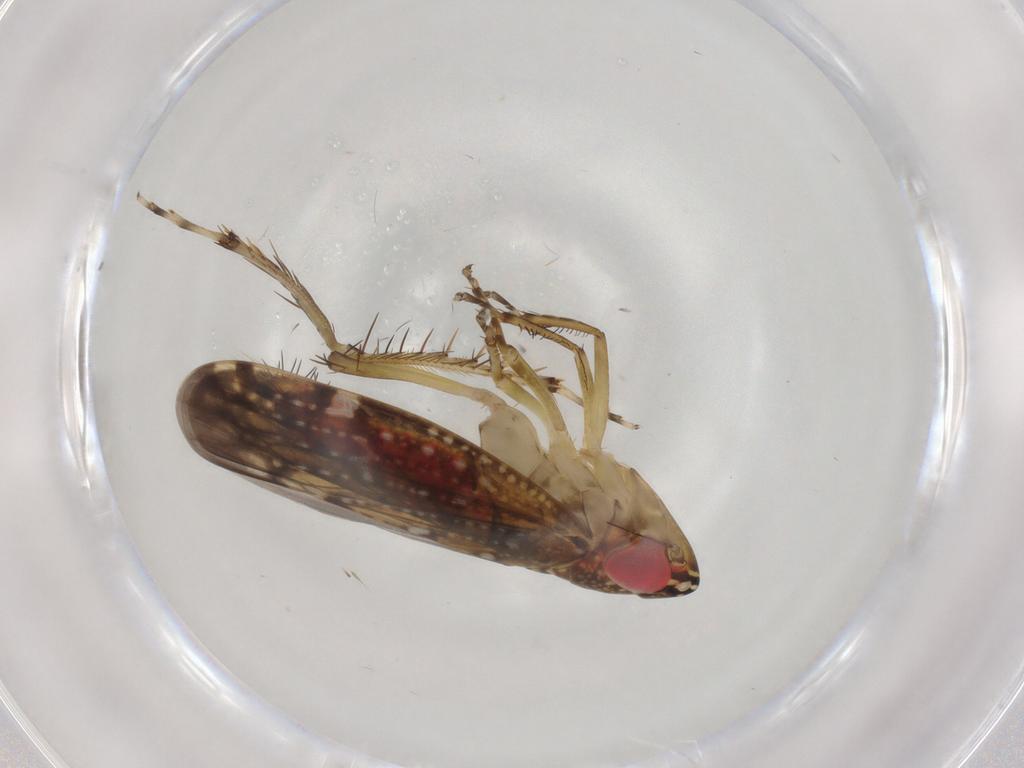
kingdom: Animalia
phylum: Arthropoda
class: Insecta
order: Hemiptera
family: Cicadellidae
